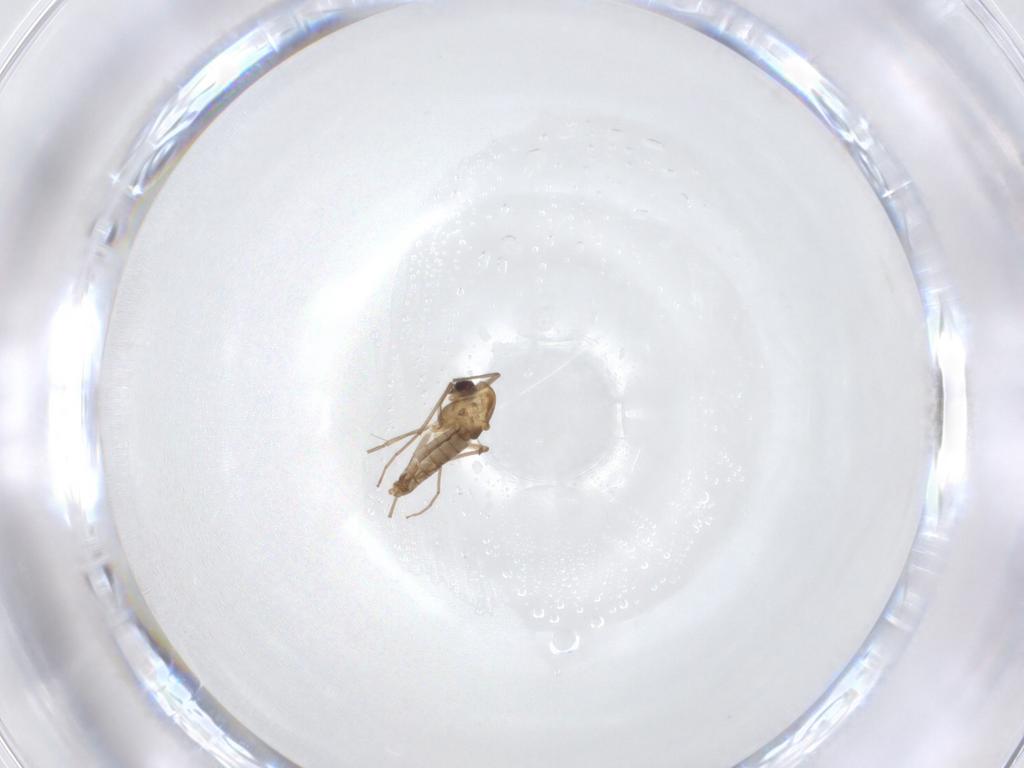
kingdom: Animalia
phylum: Arthropoda
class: Insecta
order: Diptera
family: Chironomidae
